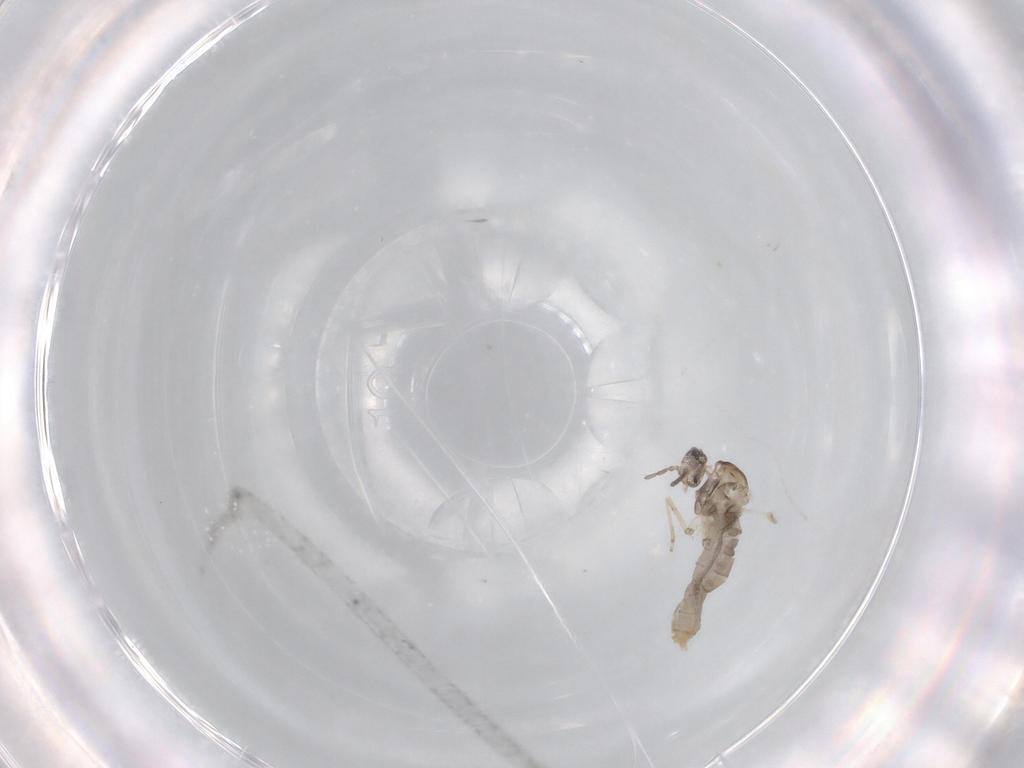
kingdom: Animalia
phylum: Arthropoda
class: Insecta
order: Diptera
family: Cecidomyiidae
